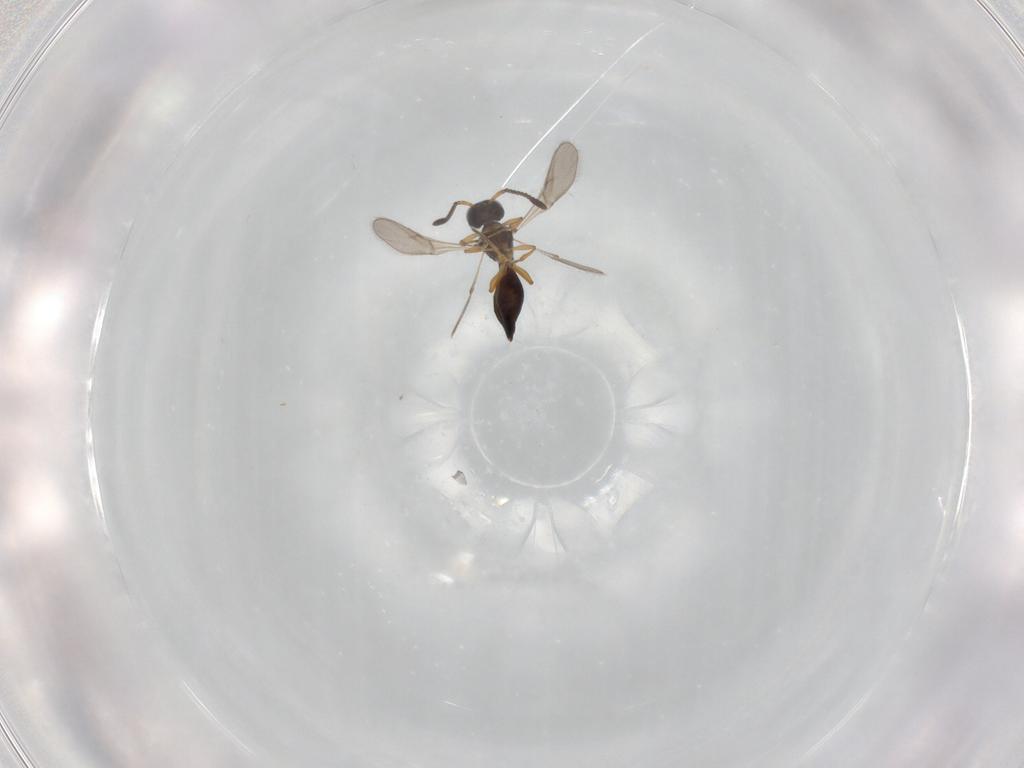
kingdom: Animalia
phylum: Arthropoda
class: Insecta
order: Hymenoptera
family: Scelionidae
